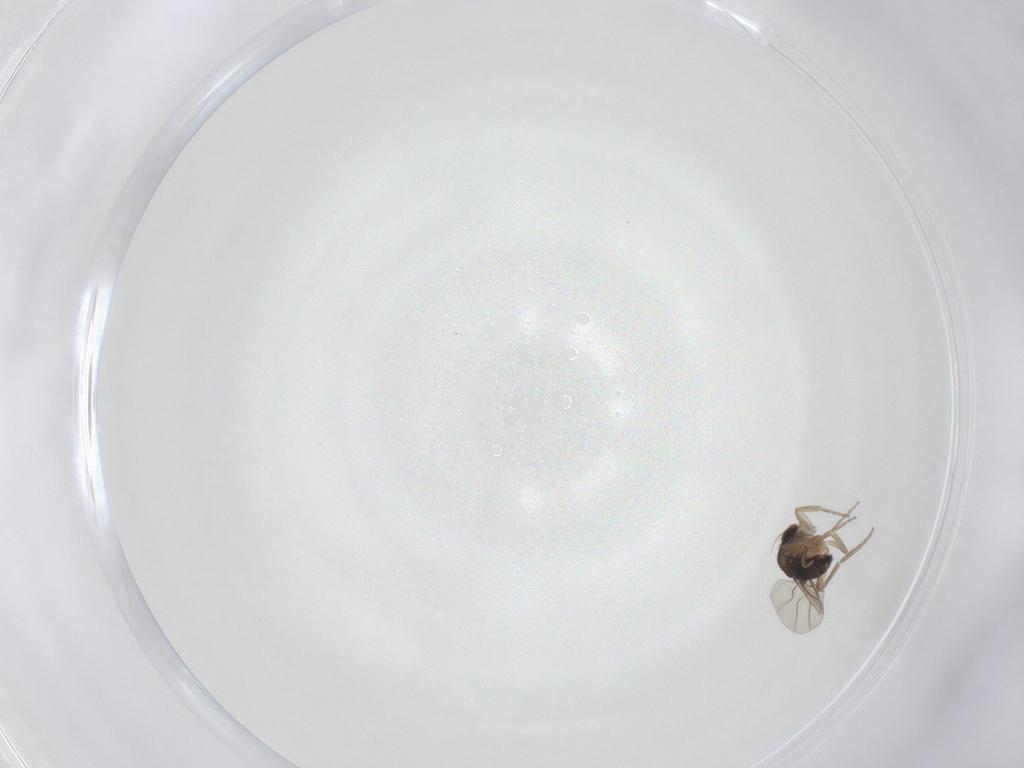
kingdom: Animalia
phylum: Arthropoda
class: Insecta
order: Diptera
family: Phoridae
